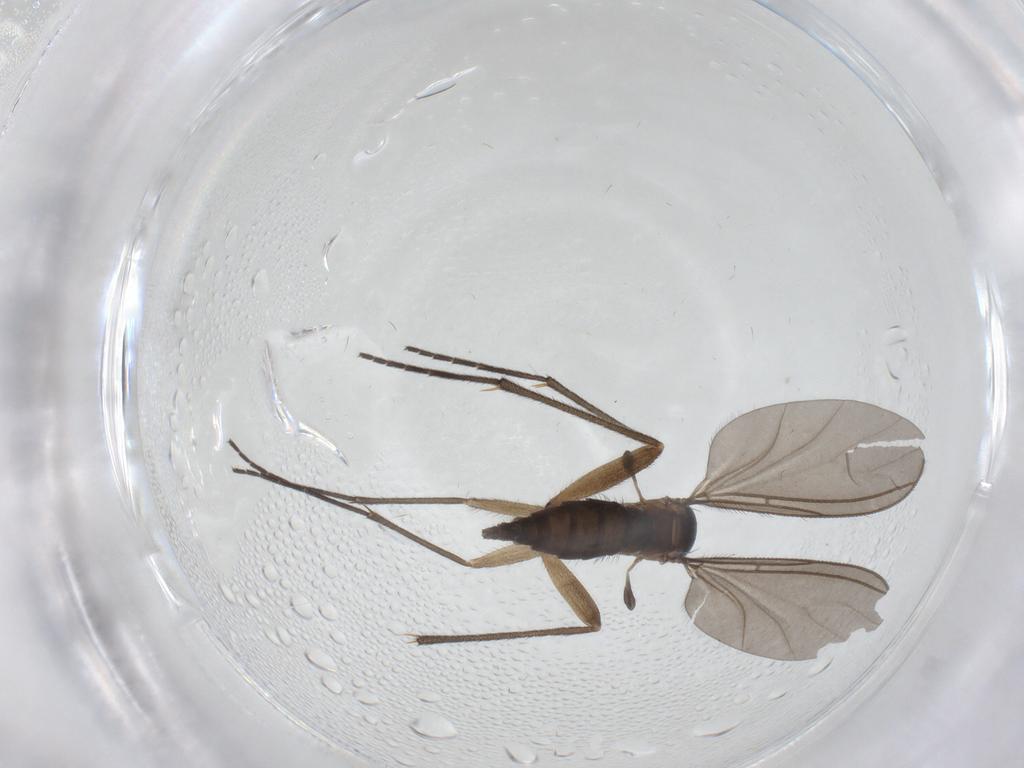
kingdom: Animalia
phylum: Arthropoda
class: Insecta
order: Diptera
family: Sciaridae
